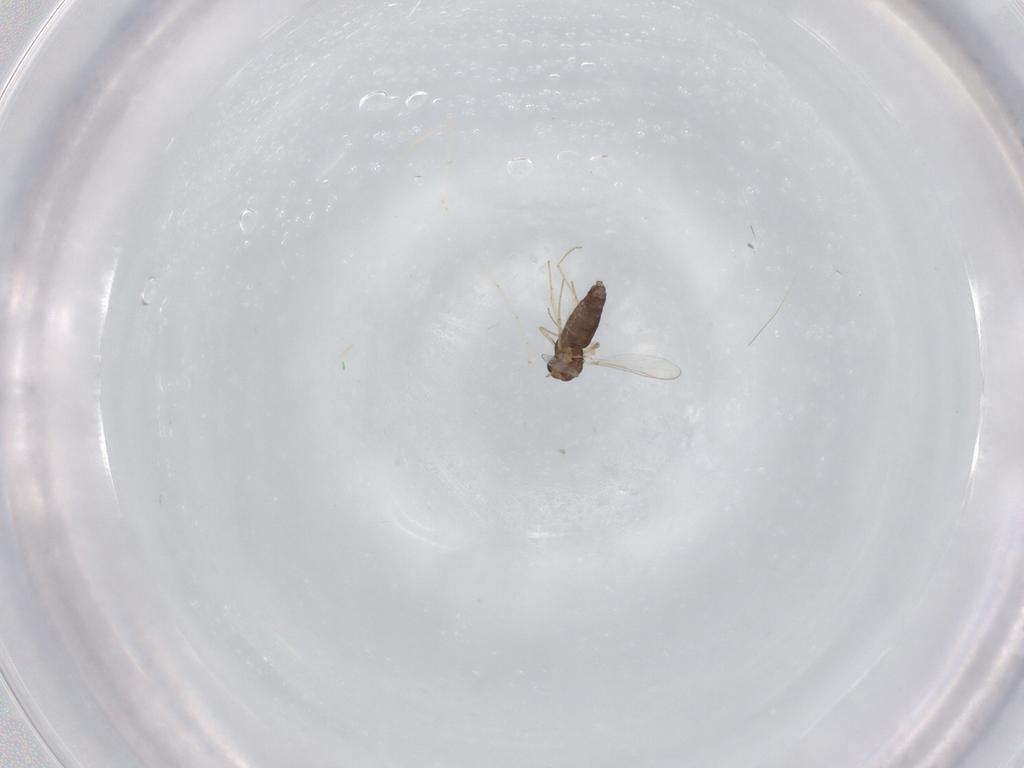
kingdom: Animalia
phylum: Arthropoda
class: Insecta
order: Diptera
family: Cecidomyiidae
